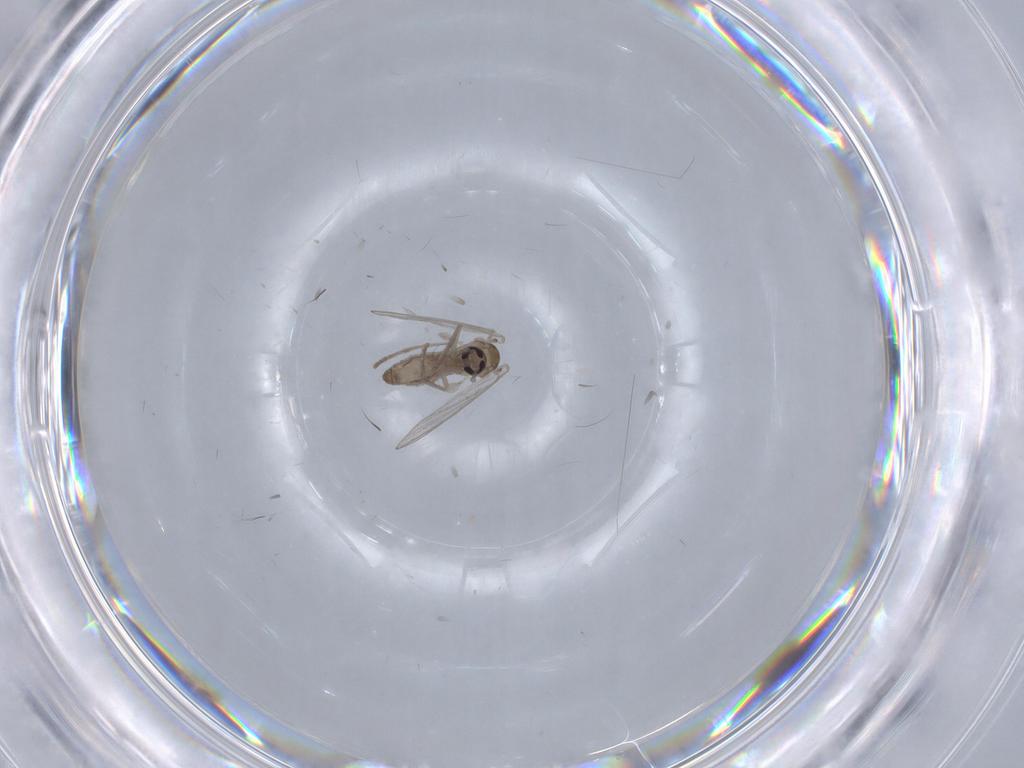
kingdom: Animalia
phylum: Arthropoda
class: Insecta
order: Diptera
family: Psychodidae
